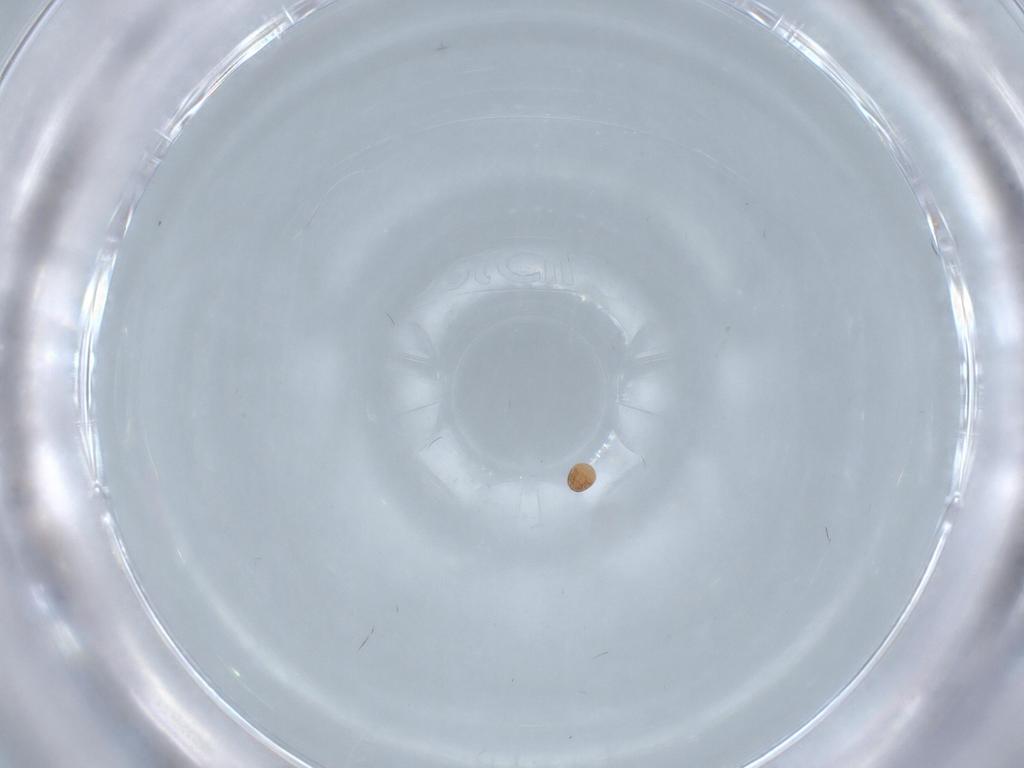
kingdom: Animalia
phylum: Arthropoda
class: Arachnida
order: Trombidiformes
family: Scutacaridae
